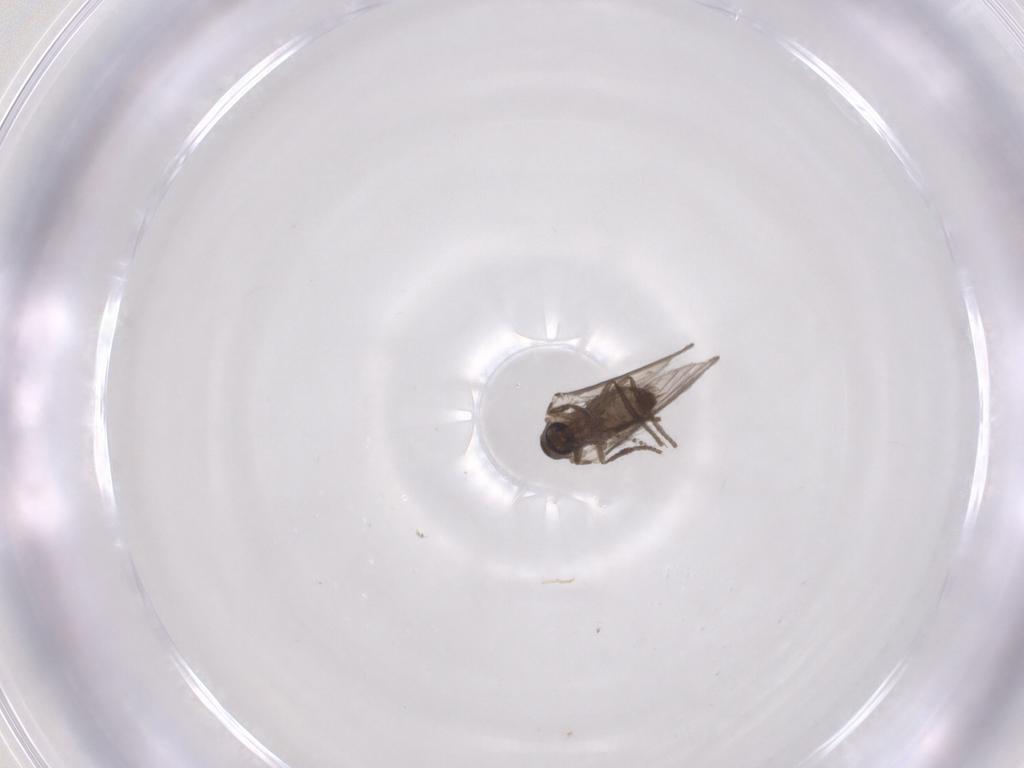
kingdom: Animalia
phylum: Arthropoda
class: Insecta
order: Diptera
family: Psychodidae
